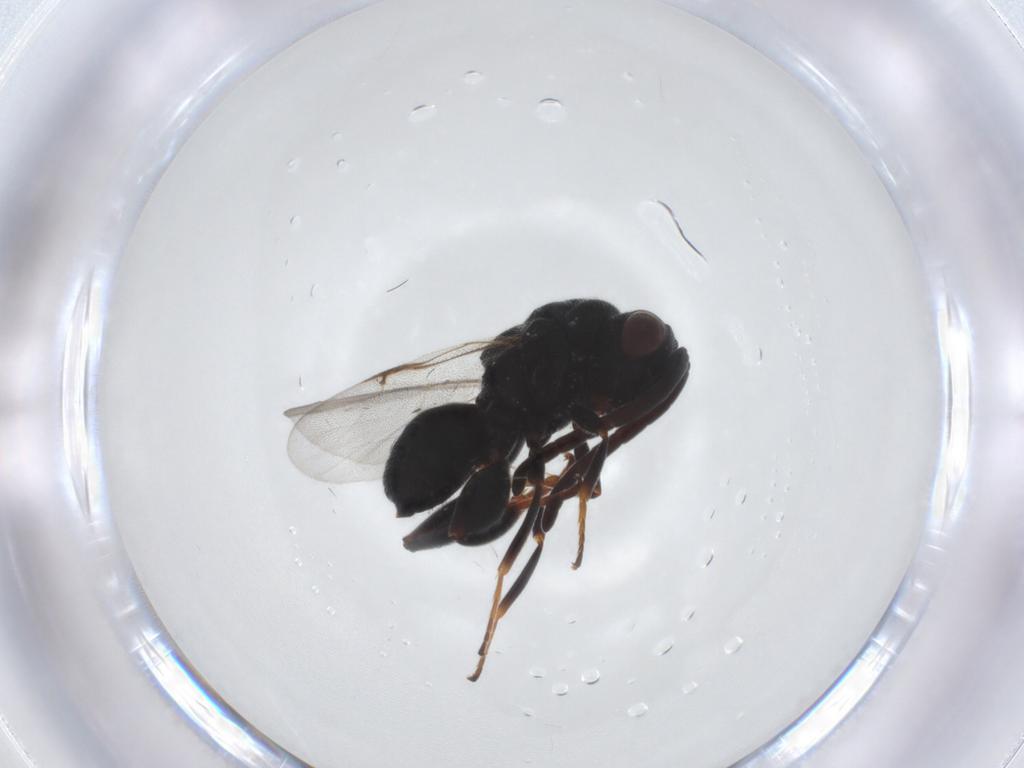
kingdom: Animalia
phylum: Arthropoda
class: Insecta
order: Hymenoptera
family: Chalcididae
